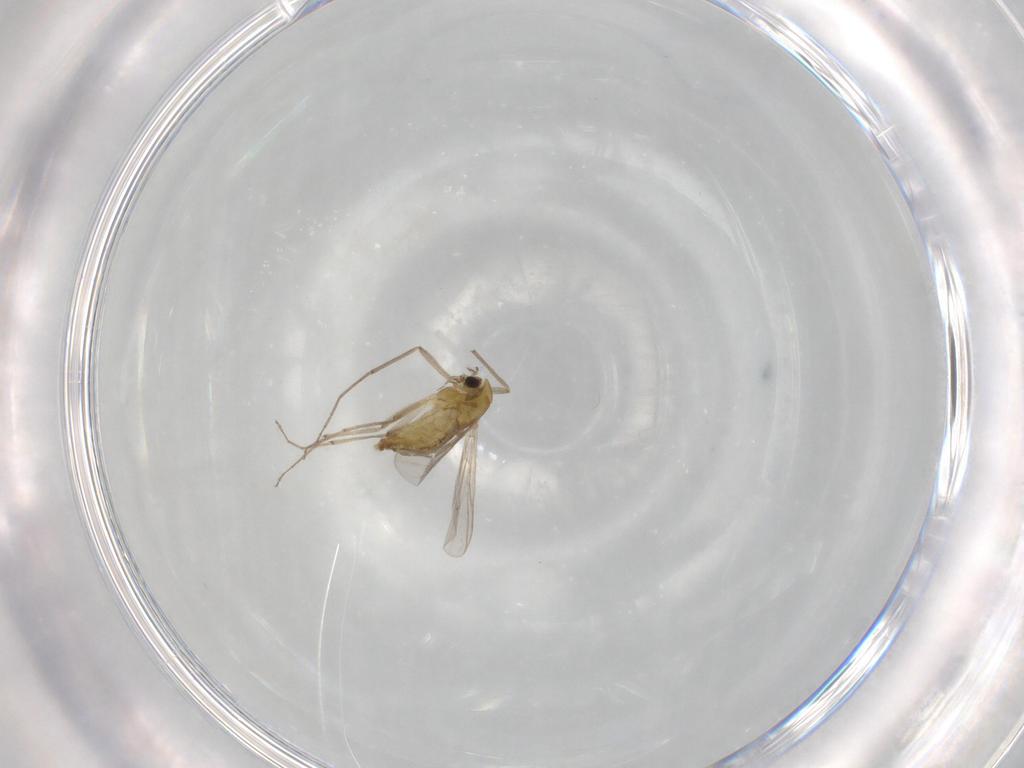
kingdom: Animalia
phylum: Arthropoda
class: Insecta
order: Diptera
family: Chironomidae
